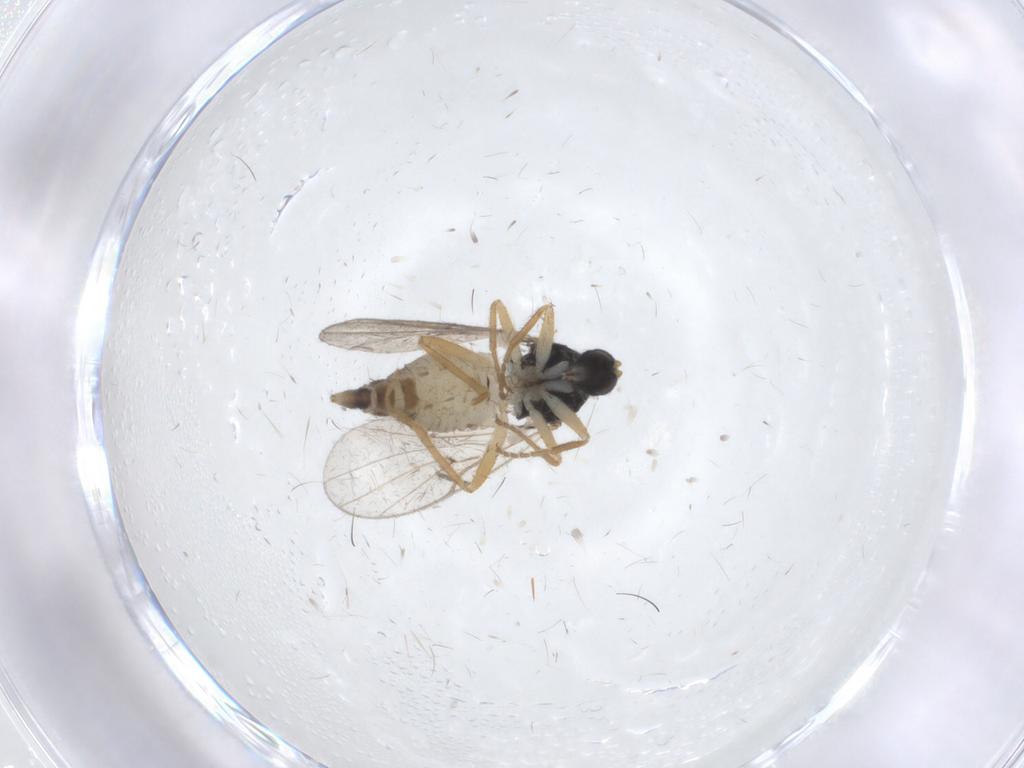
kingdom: Animalia
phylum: Arthropoda
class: Insecta
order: Diptera
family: Hybotidae
